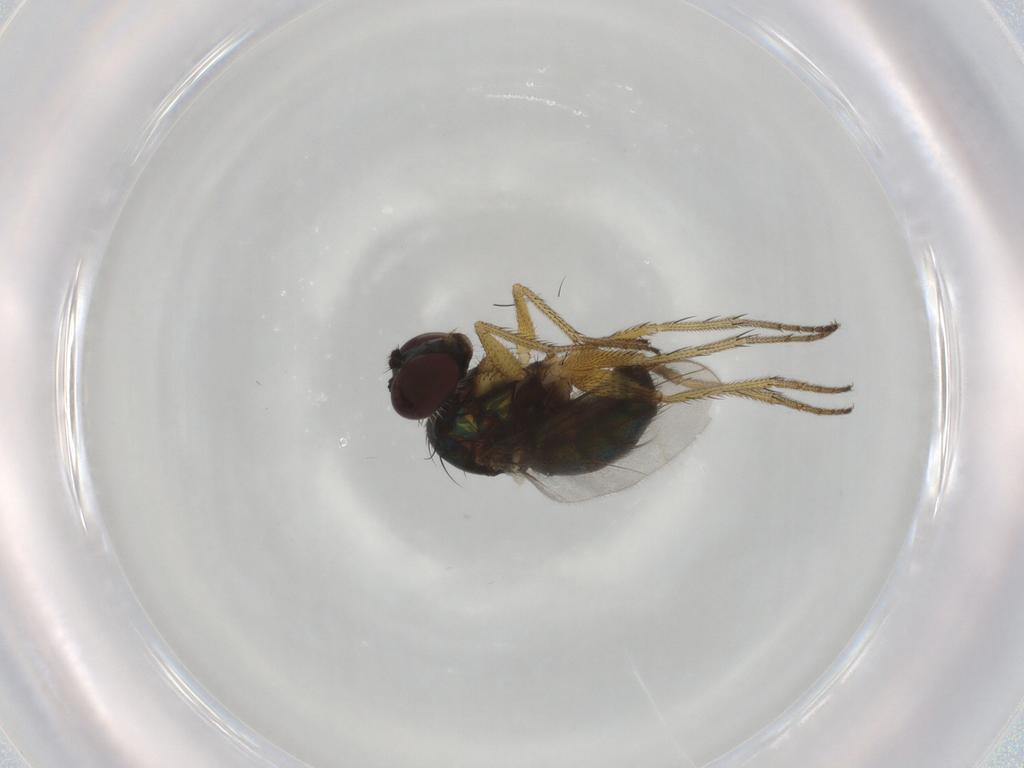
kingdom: Animalia
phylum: Arthropoda
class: Insecta
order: Diptera
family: Dolichopodidae
